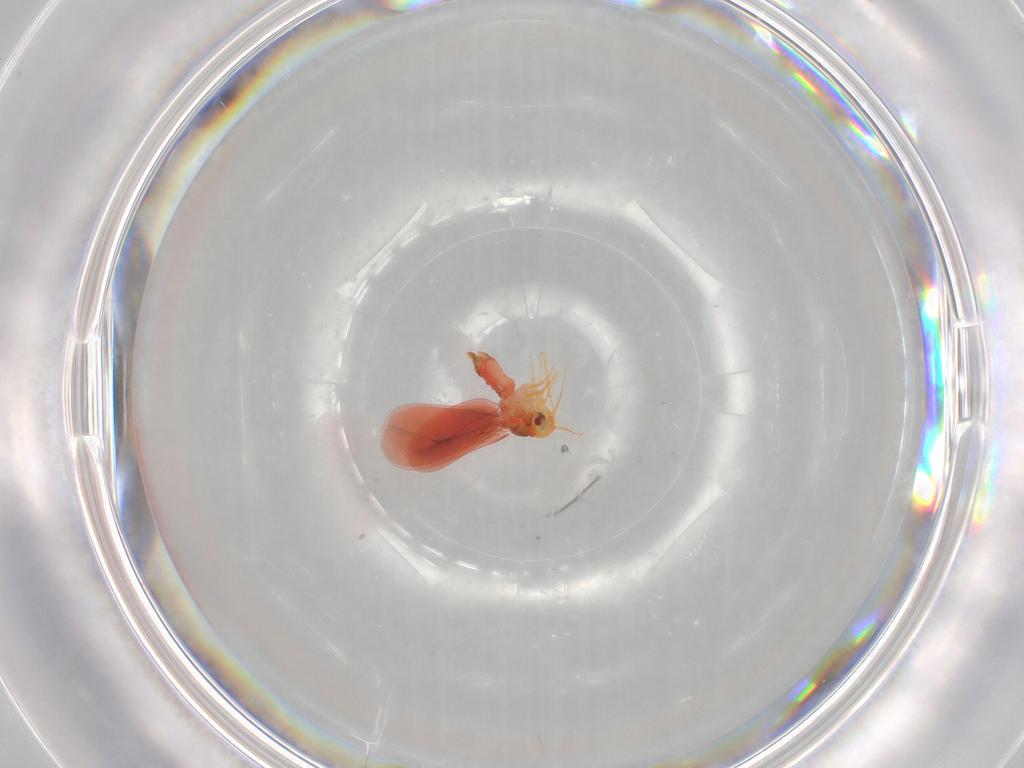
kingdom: Animalia
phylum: Arthropoda
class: Insecta
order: Hemiptera
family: Aleyrodidae
